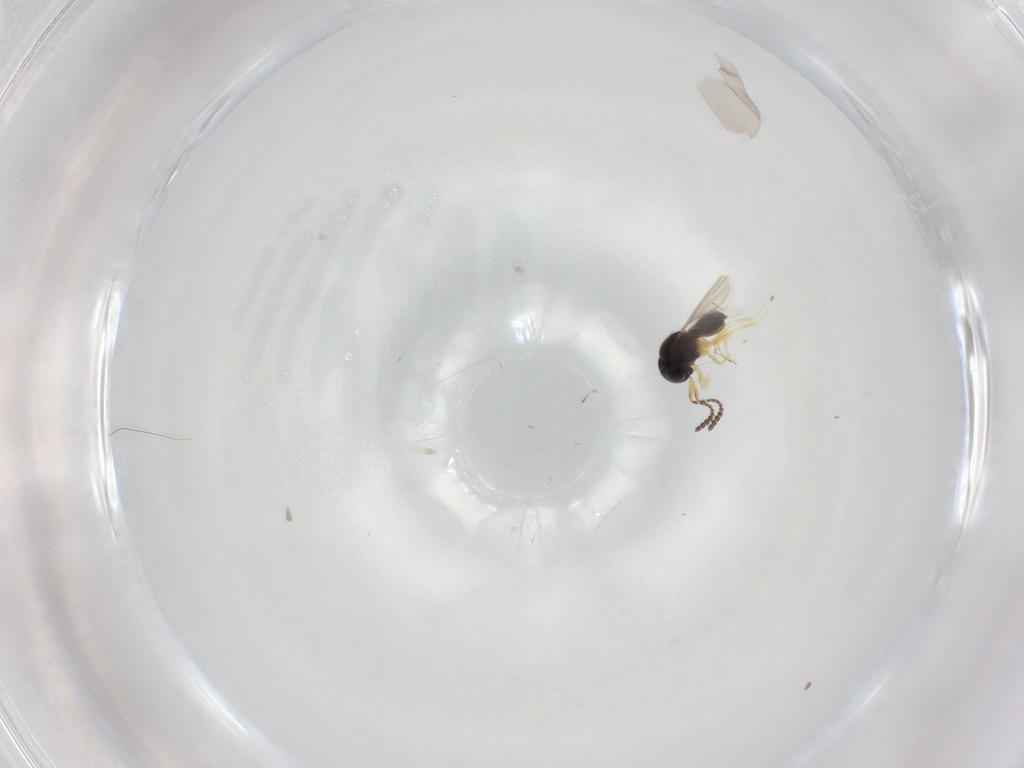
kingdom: Animalia
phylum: Arthropoda
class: Insecta
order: Hymenoptera
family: Scelionidae
